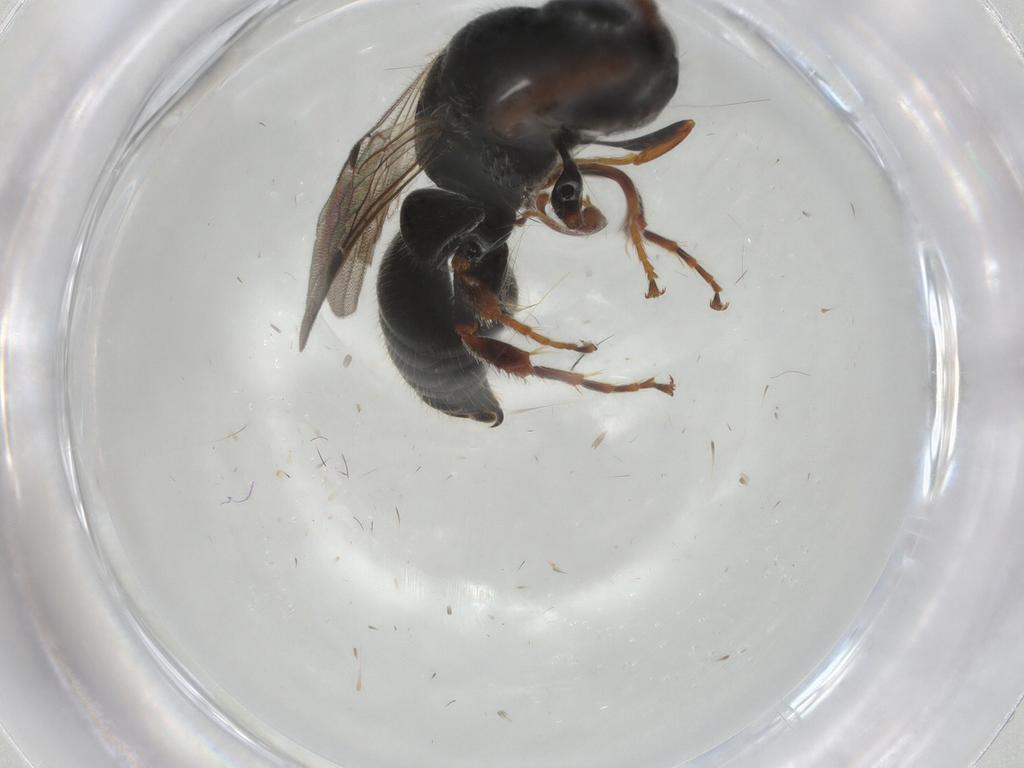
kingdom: Animalia
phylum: Arthropoda
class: Insecta
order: Hymenoptera
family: Tiphiidae
